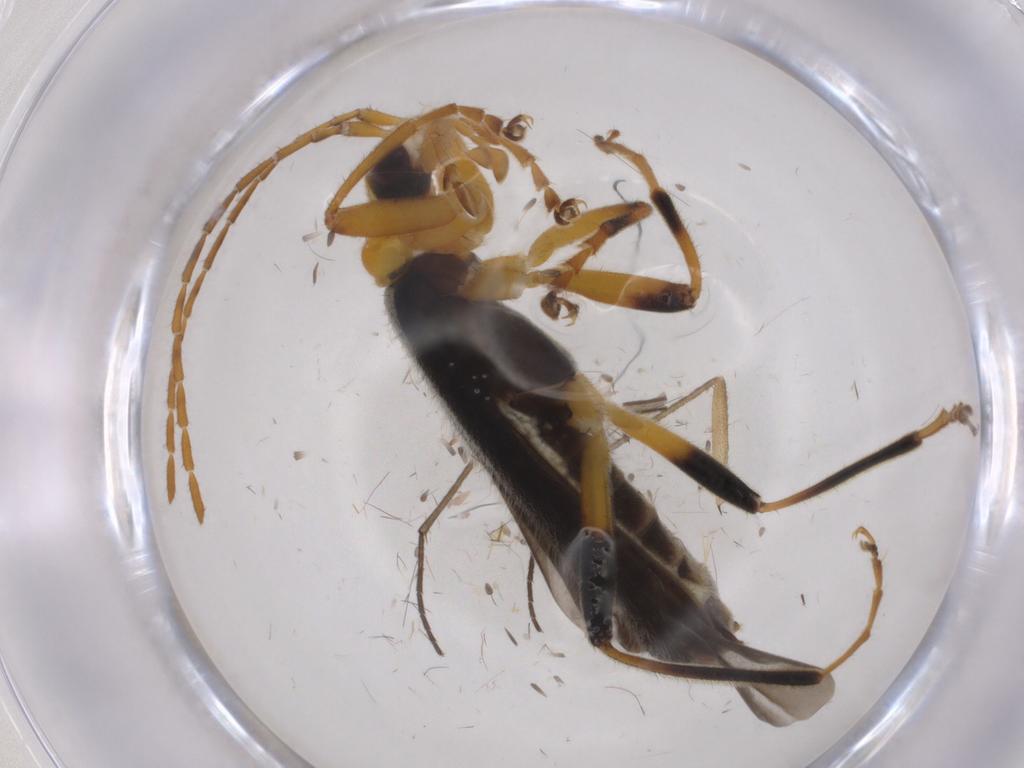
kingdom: Animalia
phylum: Arthropoda
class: Insecta
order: Coleoptera
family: Cantharidae
